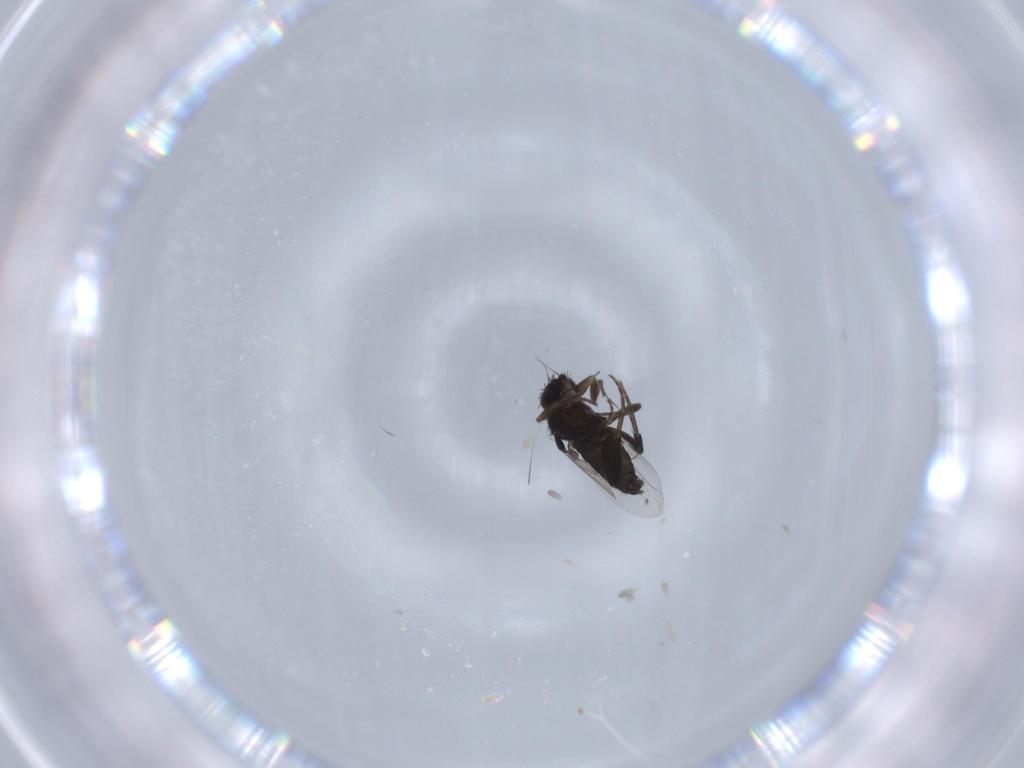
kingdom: Animalia
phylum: Arthropoda
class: Insecta
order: Diptera
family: Phoridae
